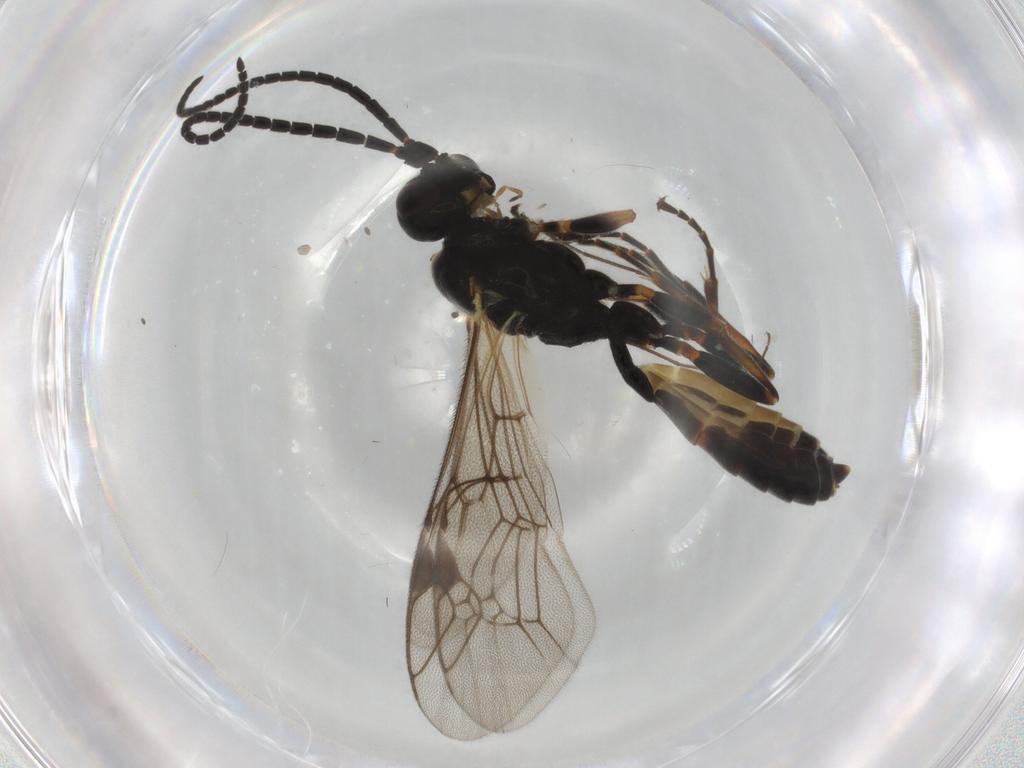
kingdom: Animalia
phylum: Arthropoda
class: Insecta
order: Hymenoptera
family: Ichneumonidae
